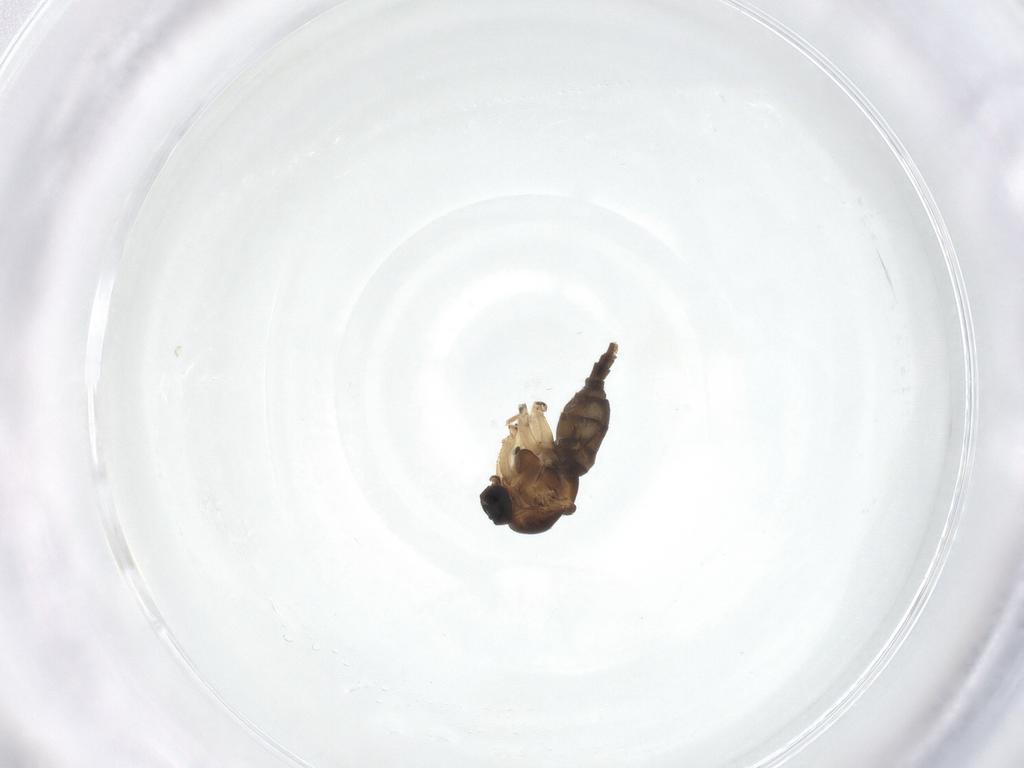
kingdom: Animalia
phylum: Arthropoda
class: Insecta
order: Diptera
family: Sciaridae
